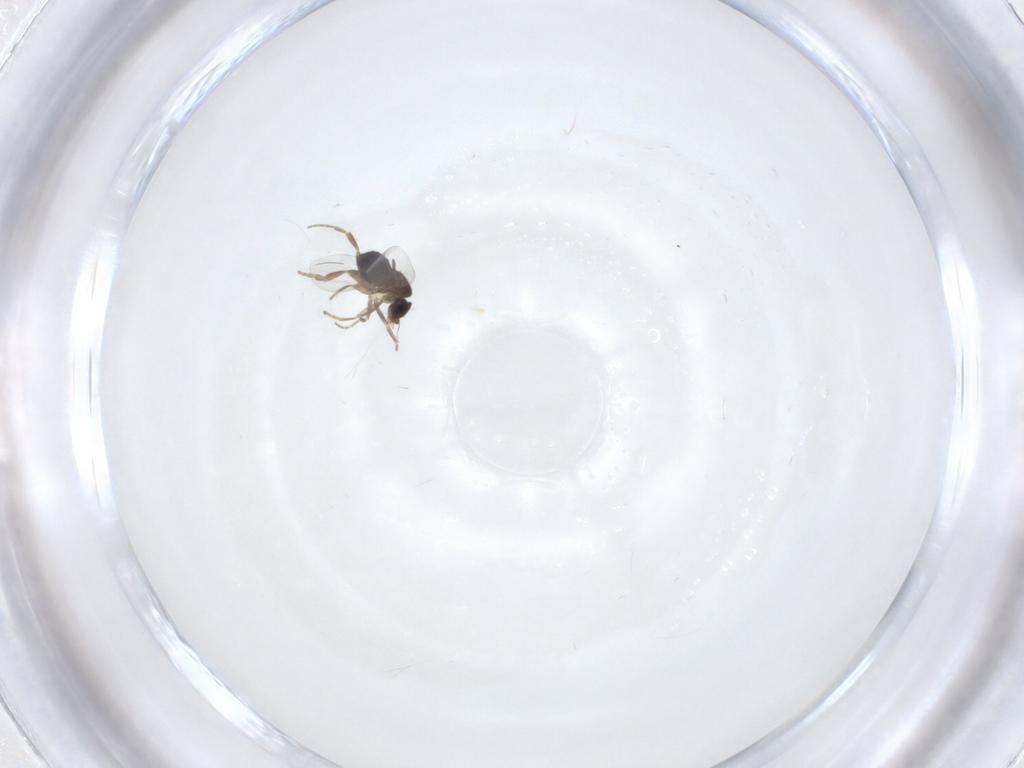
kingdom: Animalia
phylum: Arthropoda
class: Insecta
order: Diptera
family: Phoridae
